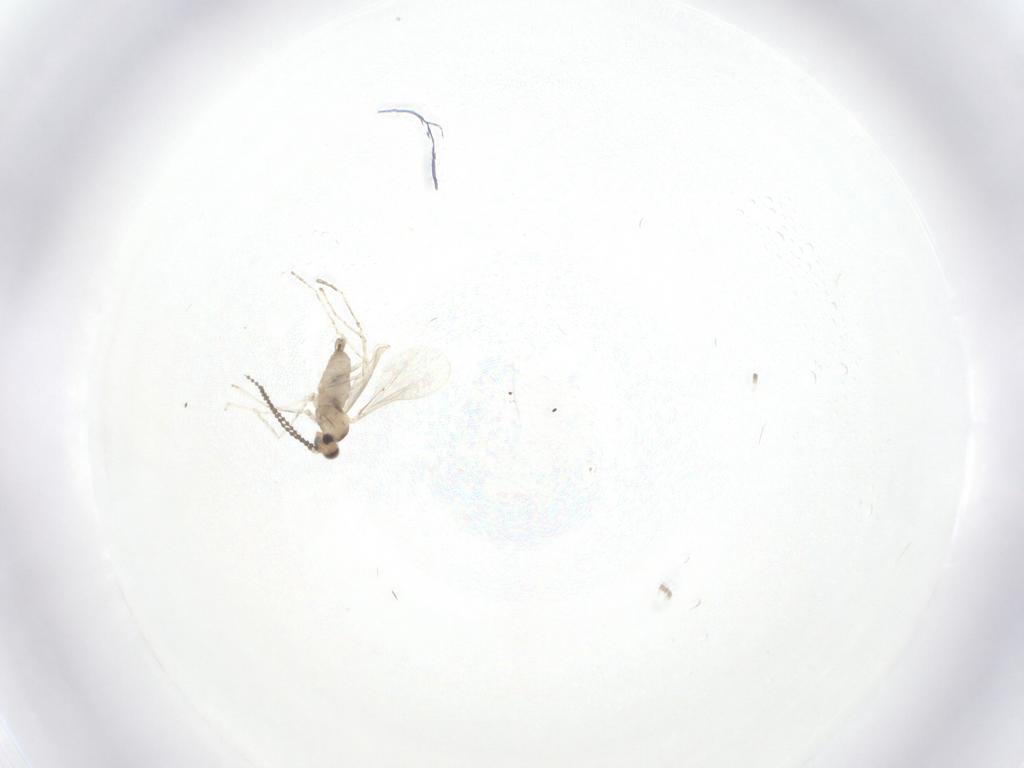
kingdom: Animalia
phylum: Arthropoda
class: Insecta
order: Diptera
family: Cecidomyiidae
